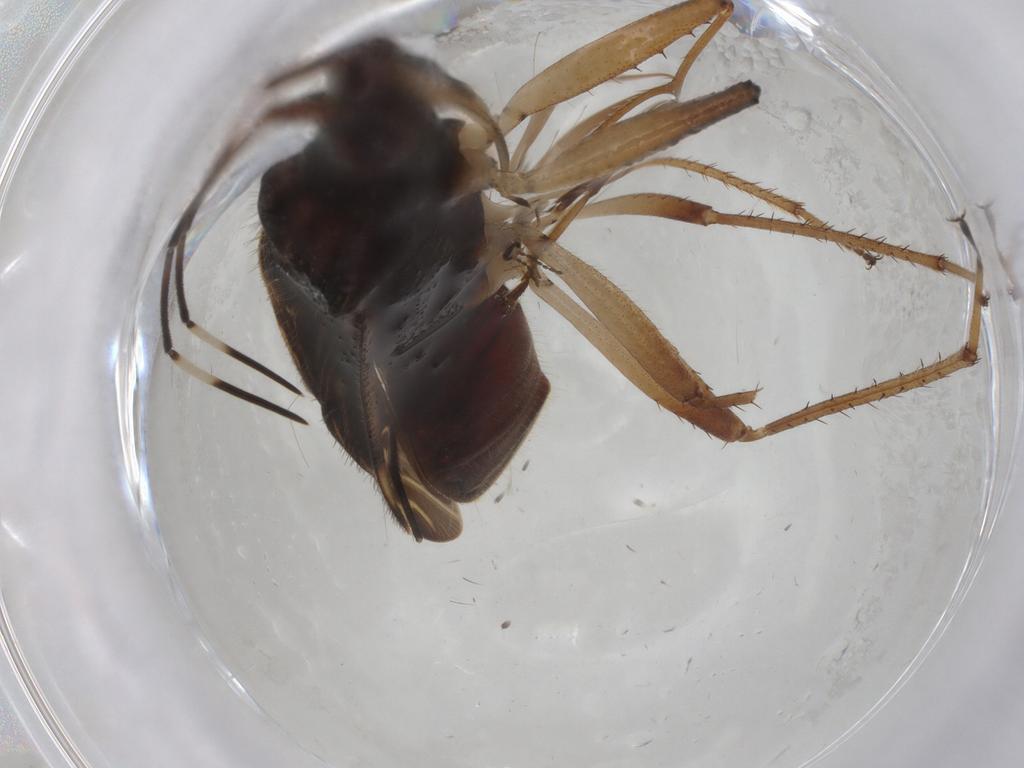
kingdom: Animalia
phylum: Arthropoda
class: Insecta
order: Hemiptera
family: Rhyparochromidae
